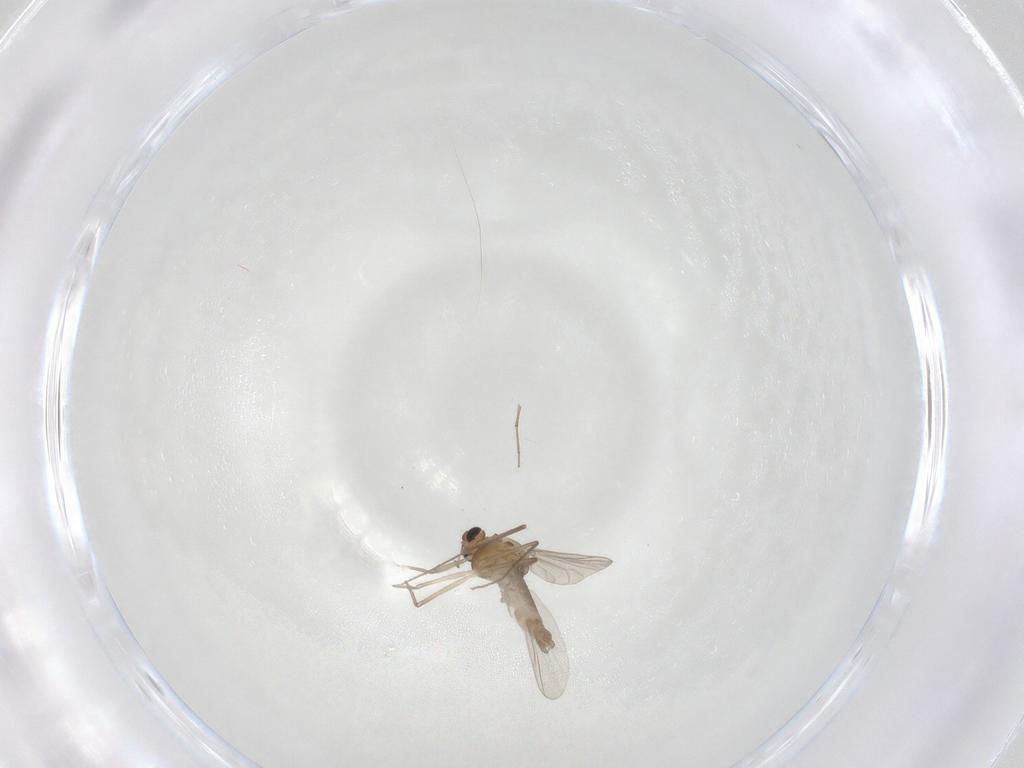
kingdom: Animalia
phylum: Arthropoda
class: Insecta
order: Diptera
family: Chironomidae
